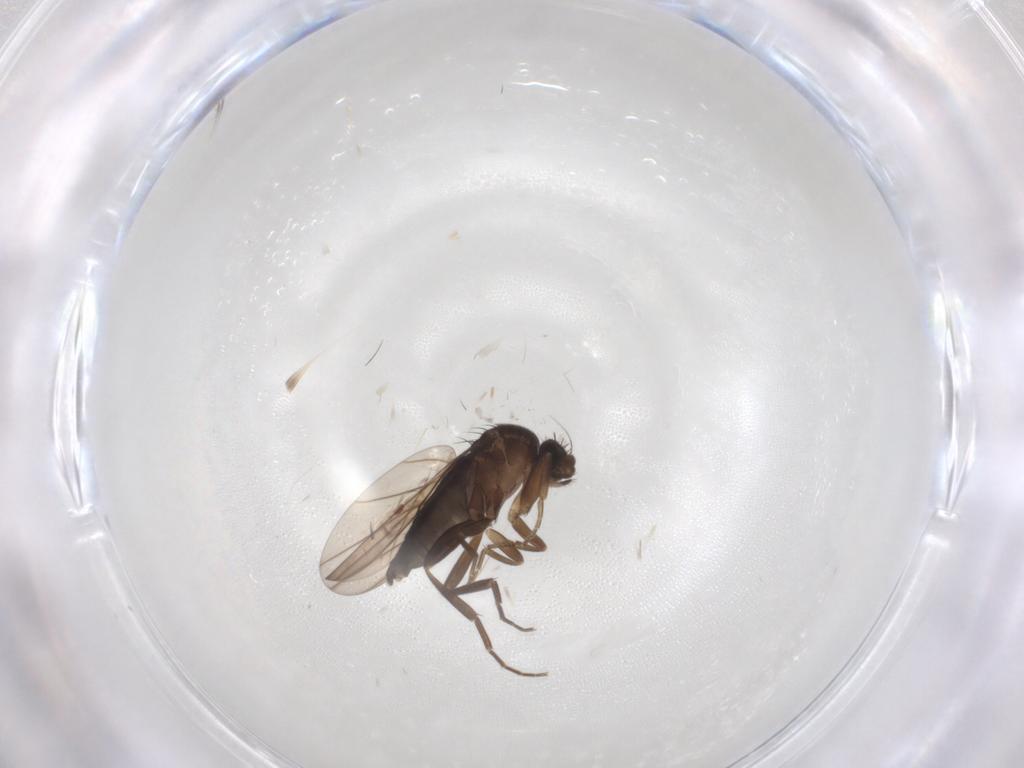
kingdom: Animalia
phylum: Arthropoda
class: Insecta
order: Diptera
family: Phoridae
